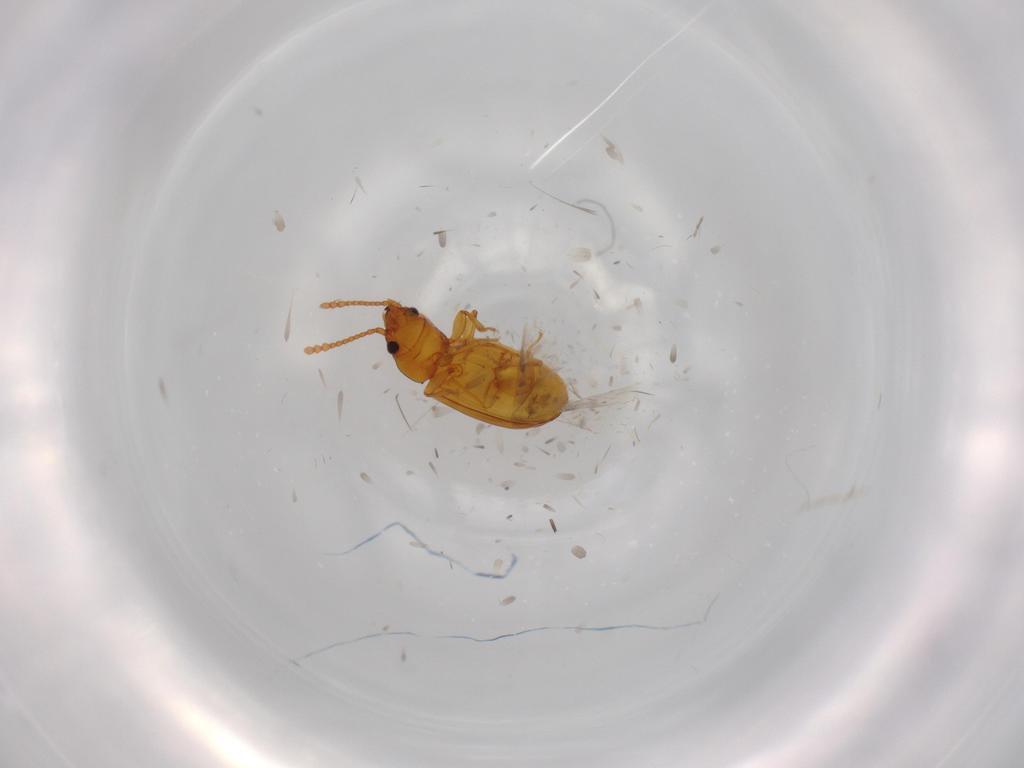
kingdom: Animalia
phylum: Arthropoda
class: Insecta
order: Coleoptera
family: Laemophloeidae
